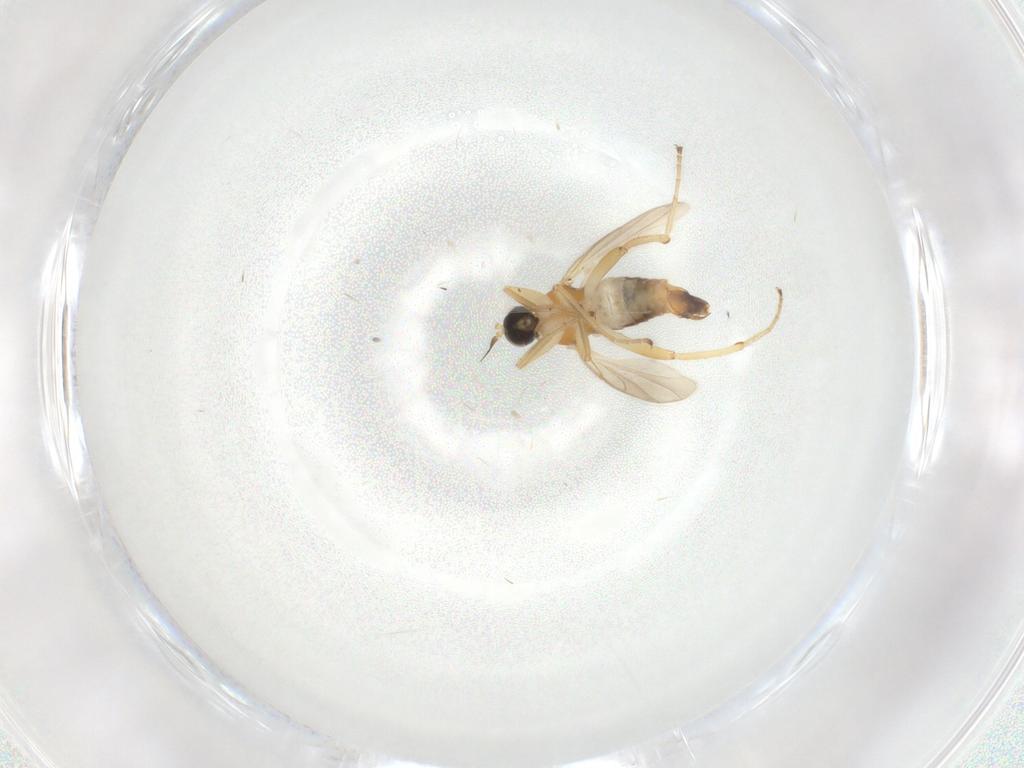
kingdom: Animalia
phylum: Arthropoda
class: Insecta
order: Diptera
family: Hybotidae
